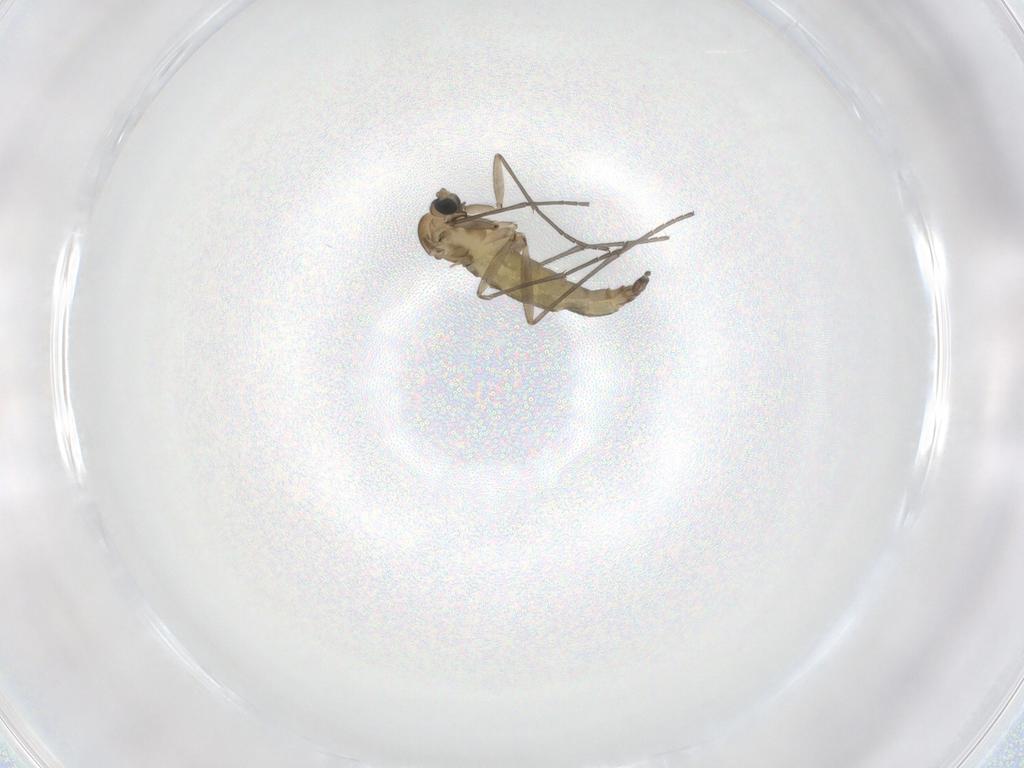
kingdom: Animalia
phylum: Arthropoda
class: Insecta
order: Diptera
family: Sciaridae
